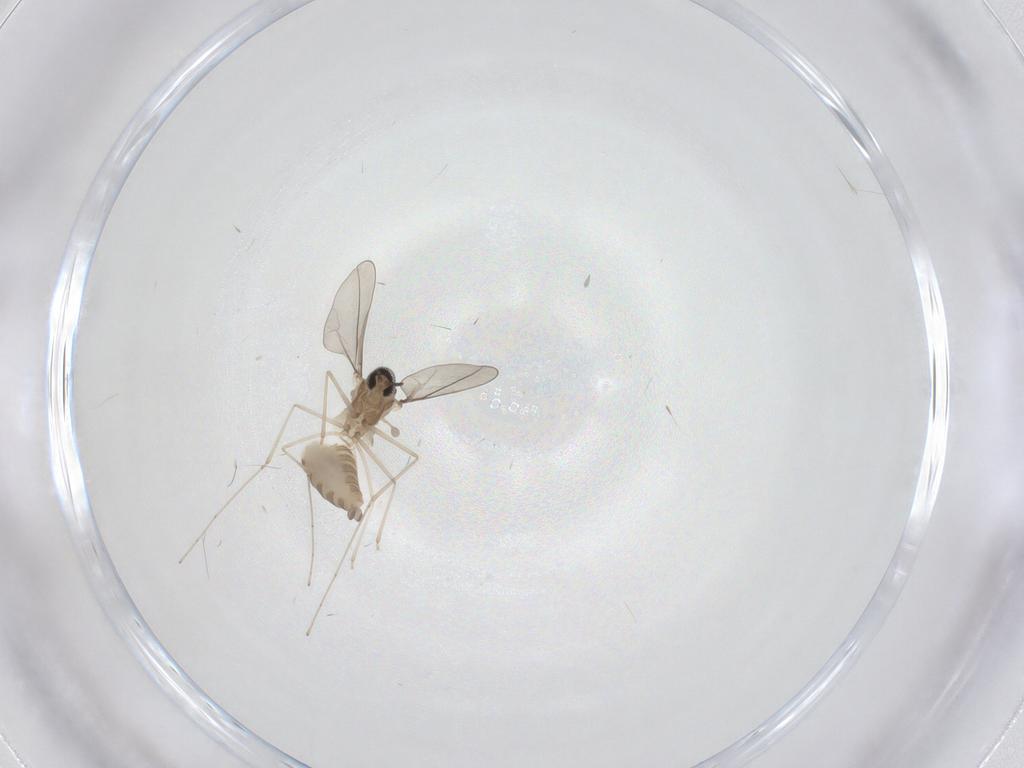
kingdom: Animalia
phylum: Arthropoda
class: Insecta
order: Diptera
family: Cecidomyiidae
